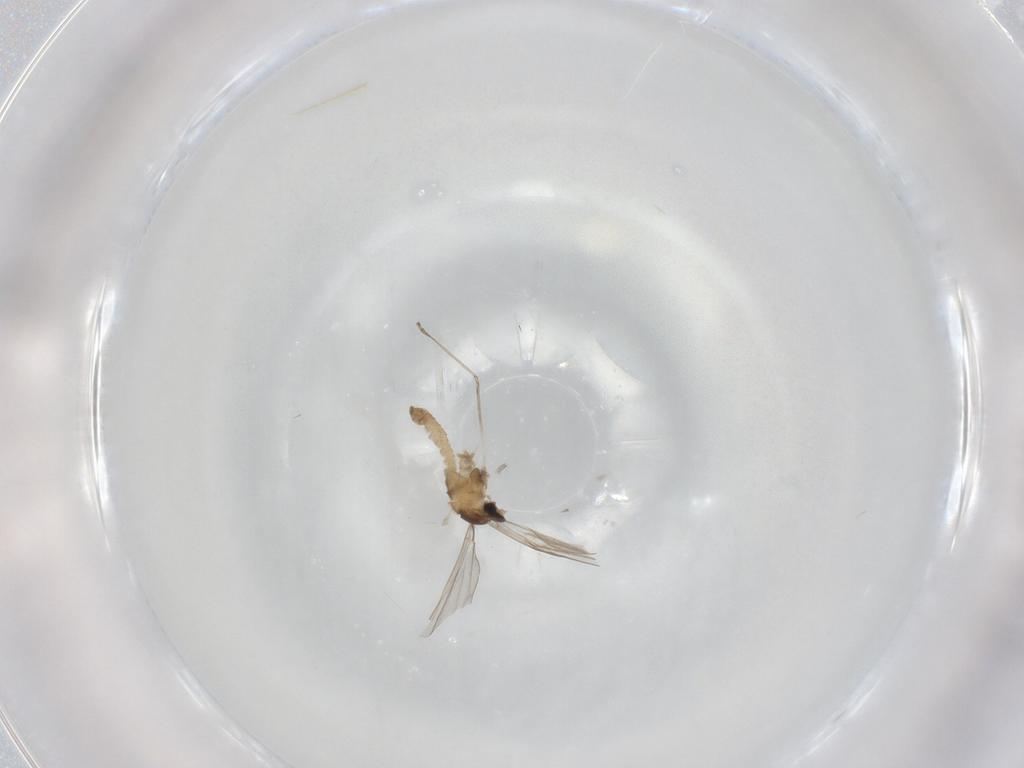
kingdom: Animalia
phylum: Arthropoda
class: Insecta
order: Diptera
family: Cecidomyiidae
